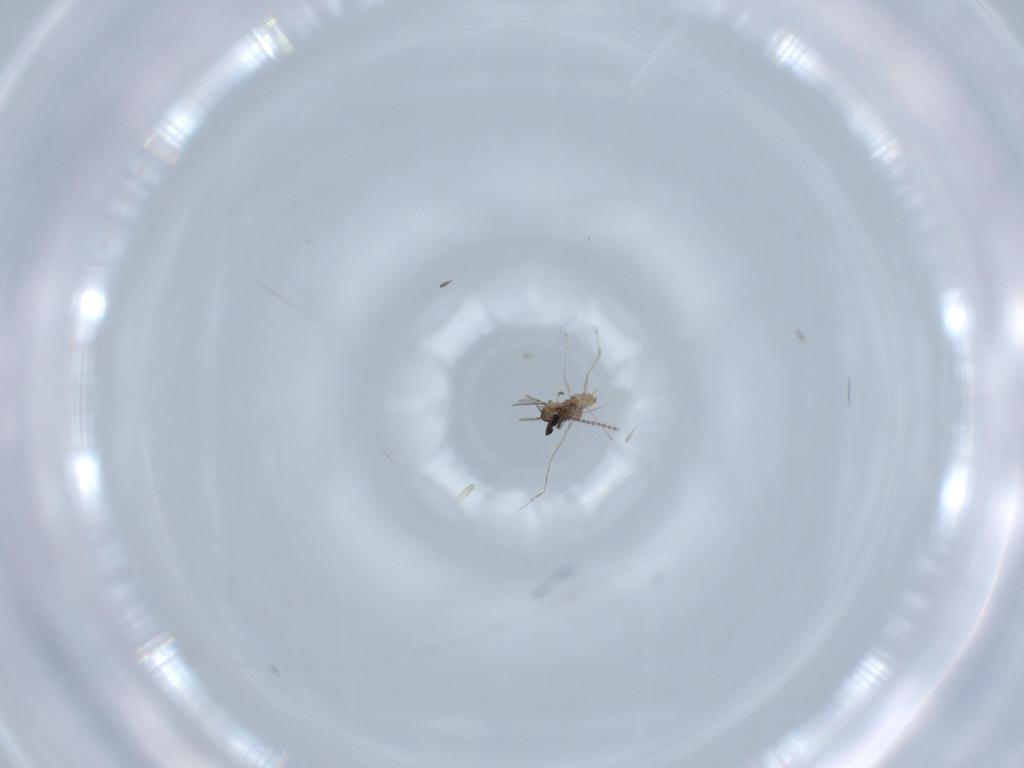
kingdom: Animalia
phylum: Arthropoda
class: Insecta
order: Diptera
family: Cecidomyiidae
